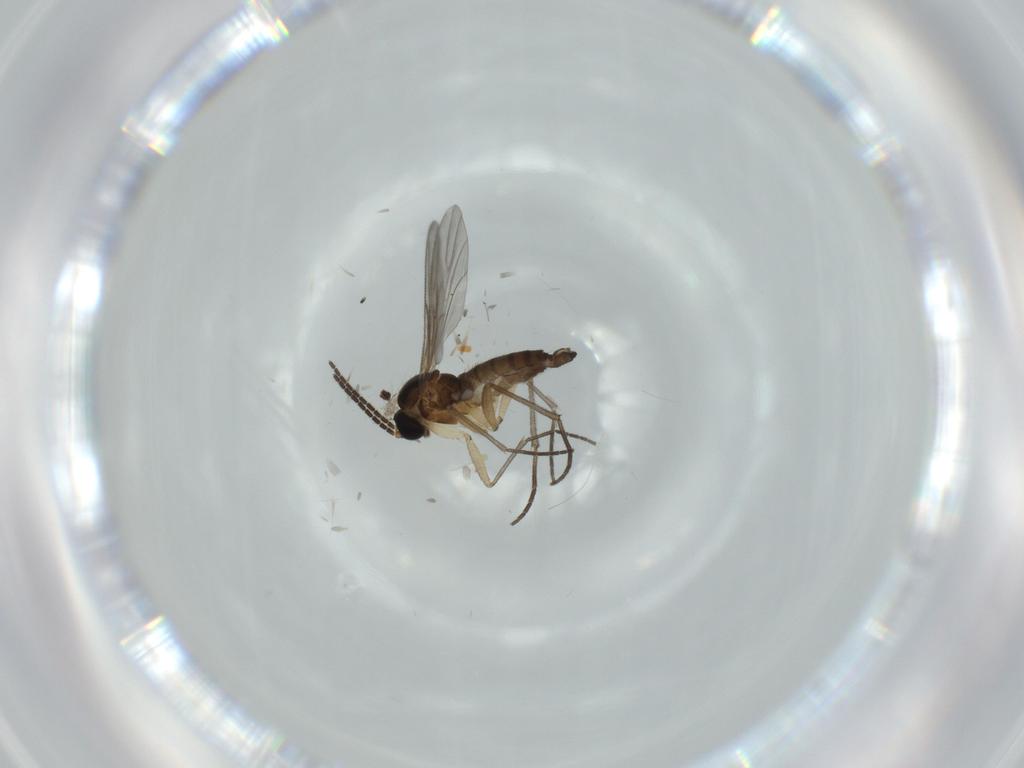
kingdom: Animalia
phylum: Arthropoda
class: Insecta
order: Diptera
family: Sciaridae
